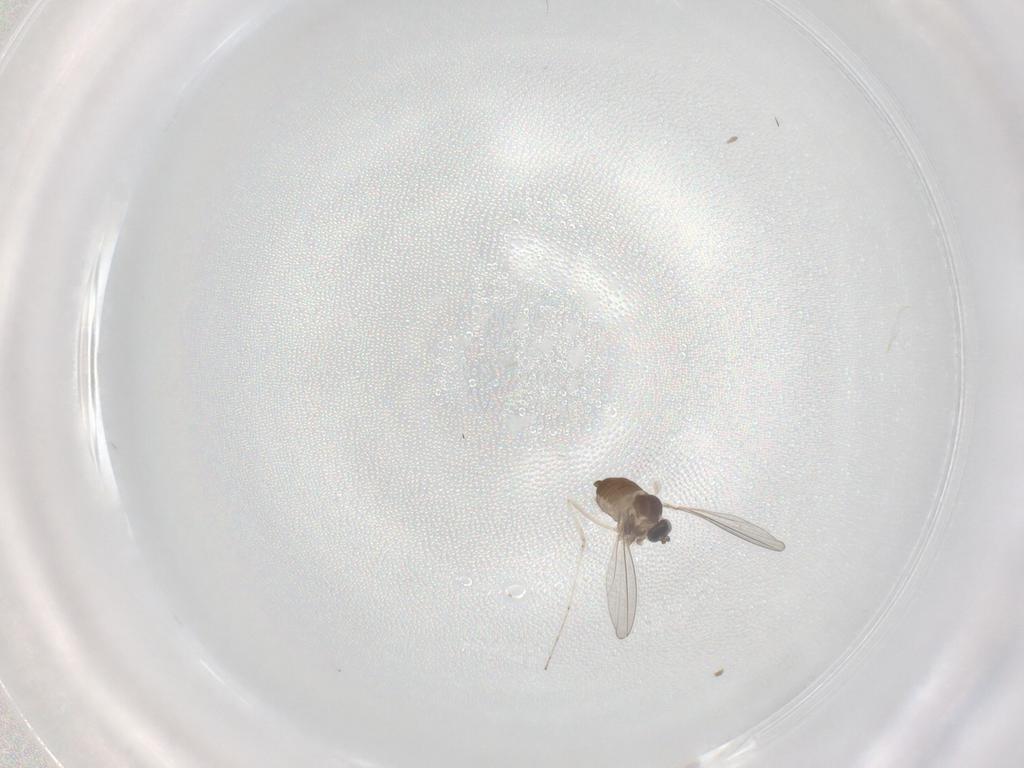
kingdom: Animalia
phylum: Arthropoda
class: Insecta
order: Diptera
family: Cecidomyiidae
